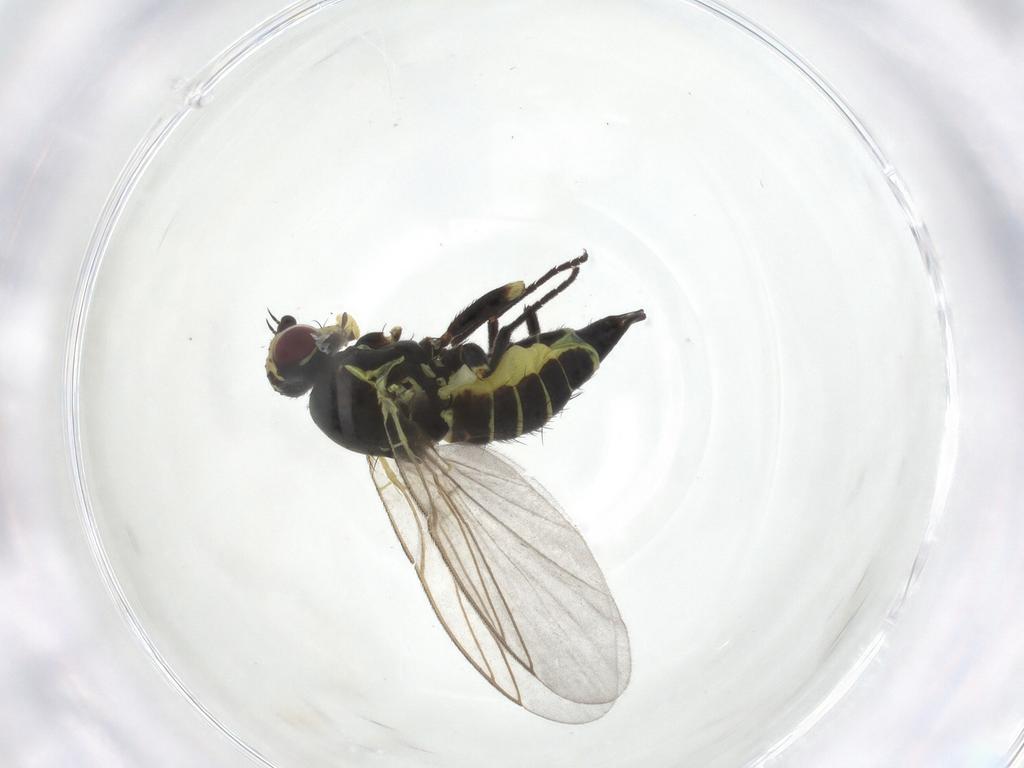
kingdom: Animalia
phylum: Arthropoda
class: Insecta
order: Diptera
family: Agromyzidae
